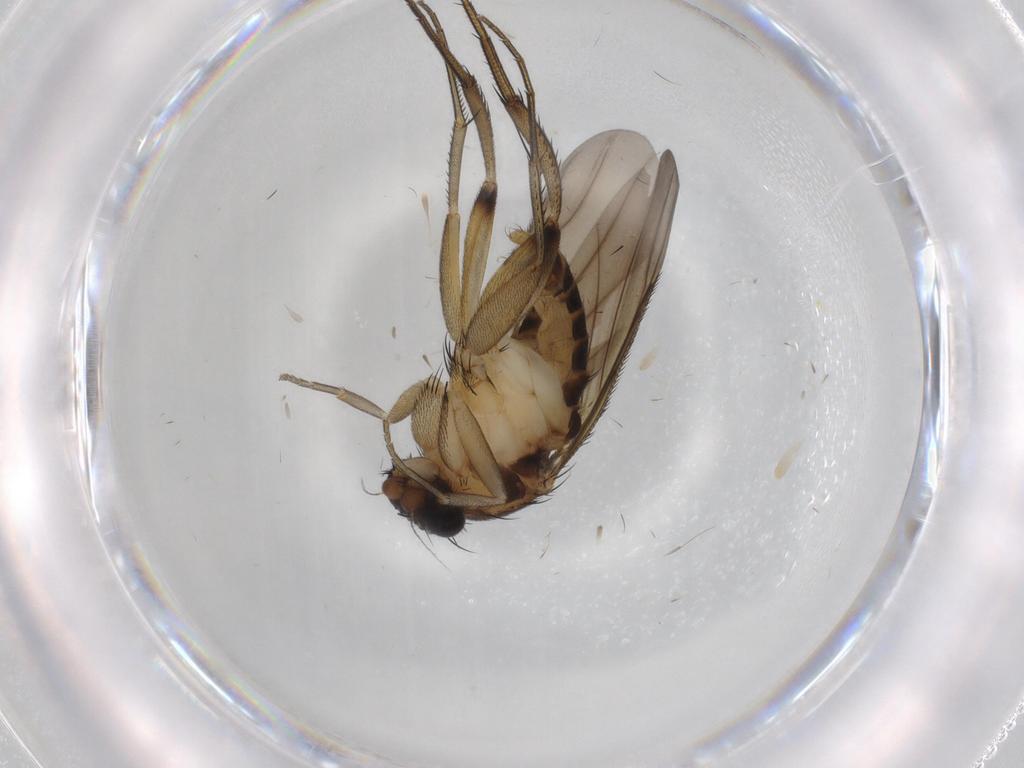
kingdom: Animalia
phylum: Arthropoda
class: Insecta
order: Diptera
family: Phoridae
